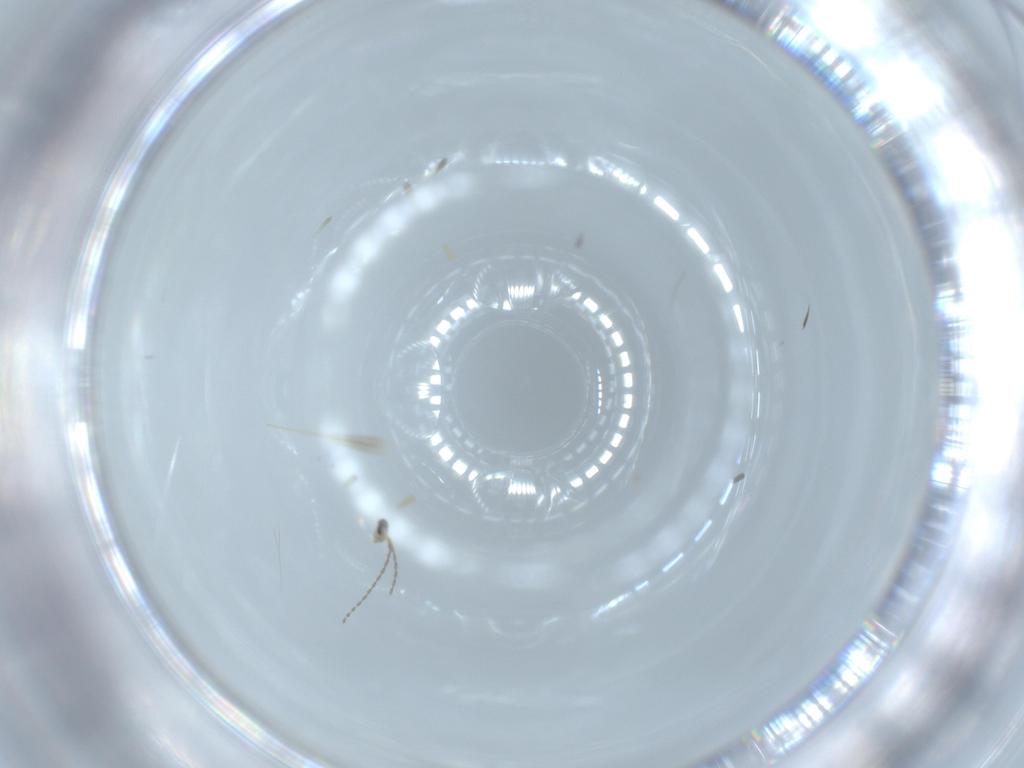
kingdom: Animalia
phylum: Arthropoda
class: Insecta
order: Diptera
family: Cecidomyiidae
